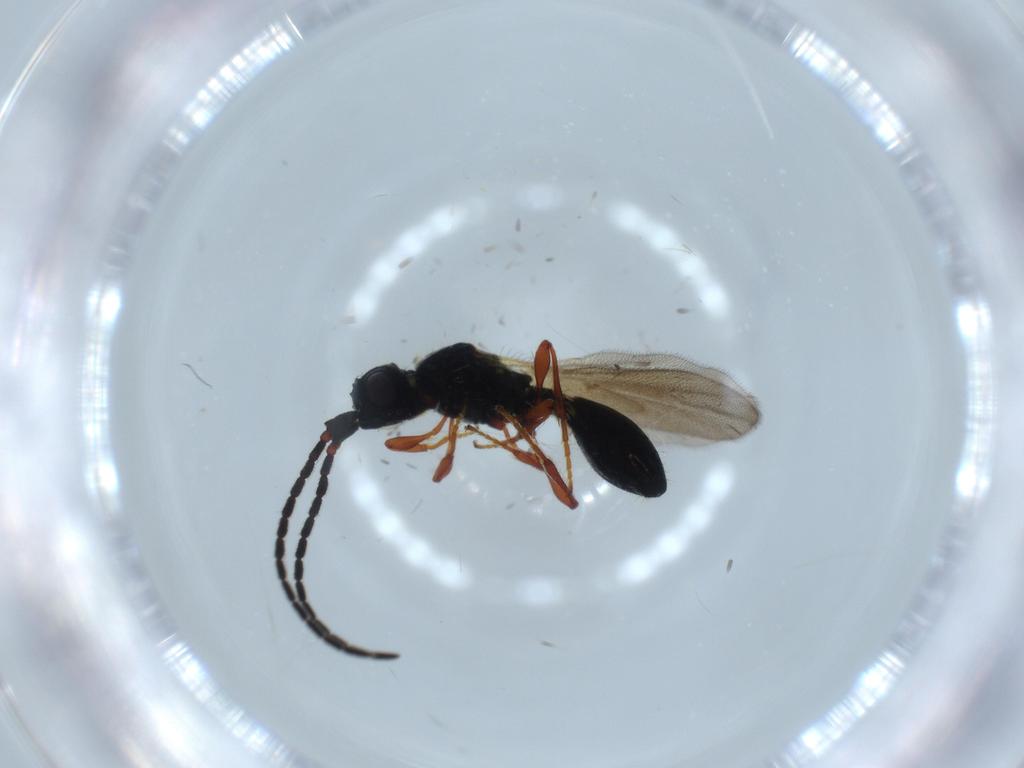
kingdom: Animalia
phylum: Arthropoda
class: Insecta
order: Hymenoptera
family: Diapriidae
